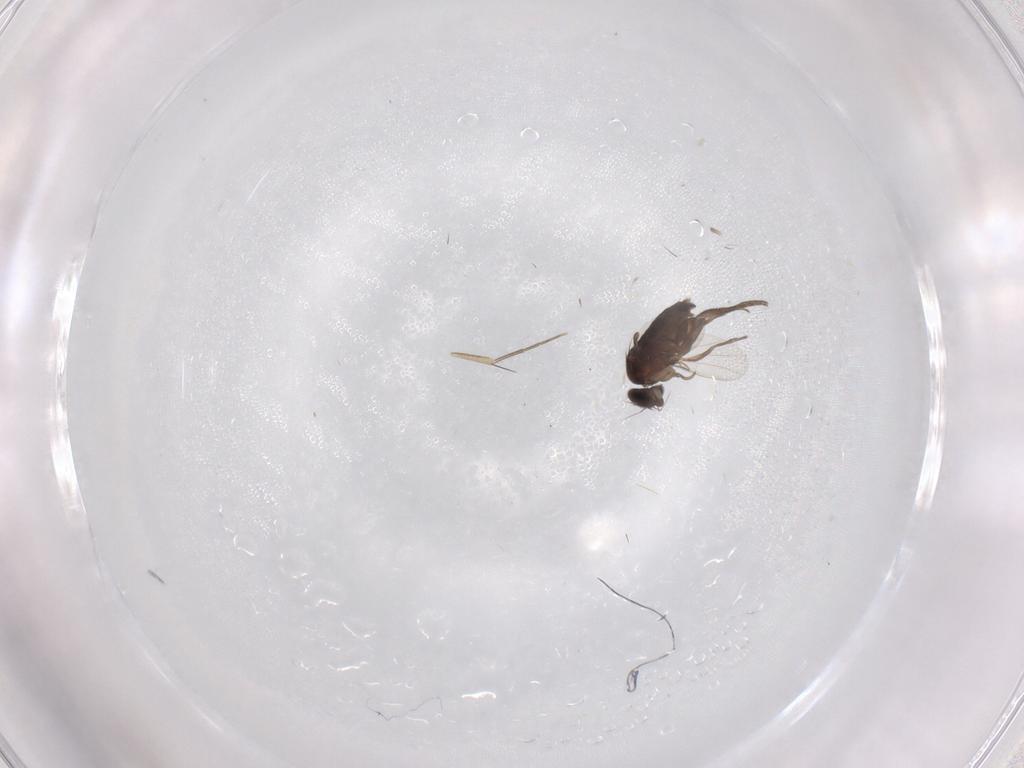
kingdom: Animalia
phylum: Arthropoda
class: Insecta
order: Diptera
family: Phoridae
